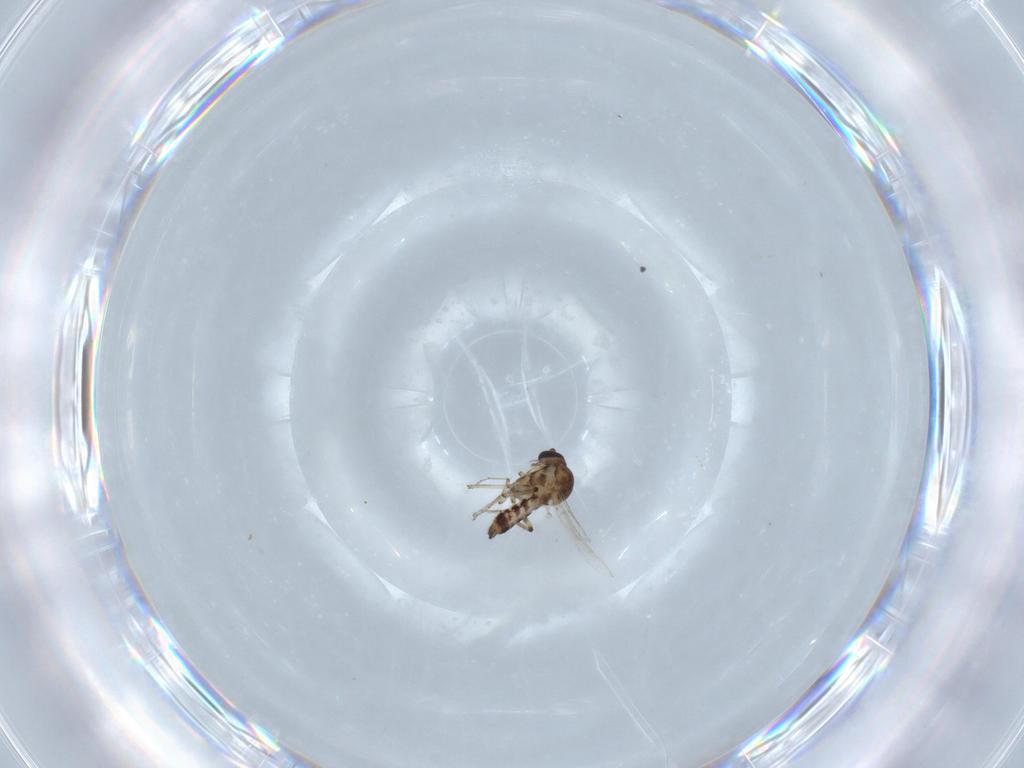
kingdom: Animalia
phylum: Arthropoda
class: Insecta
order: Diptera
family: Cecidomyiidae
